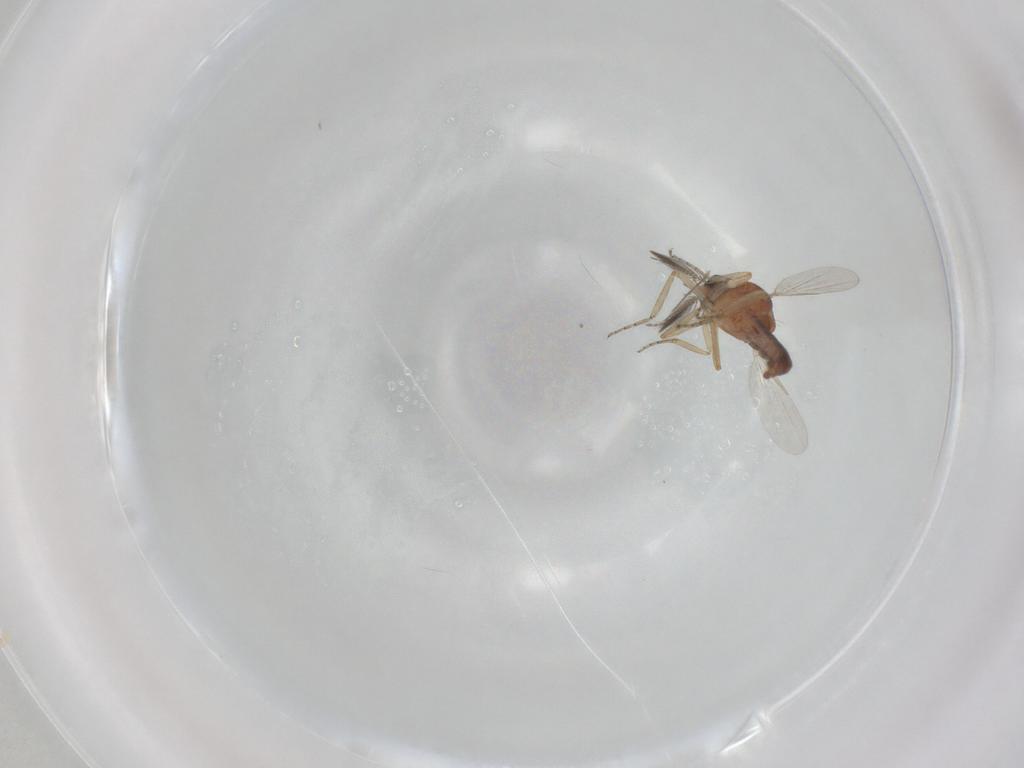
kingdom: Animalia
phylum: Arthropoda
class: Insecta
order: Diptera
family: Ceratopogonidae
